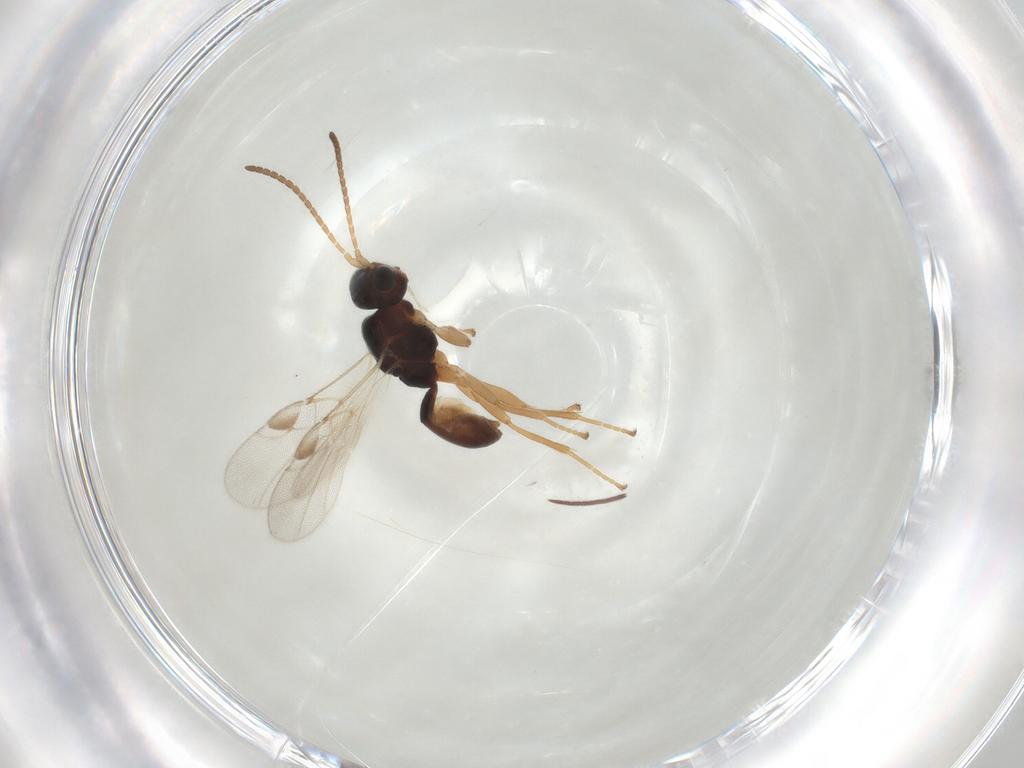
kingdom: Animalia
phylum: Arthropoda
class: Insecta
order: Hymenoptera
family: Braconidae
